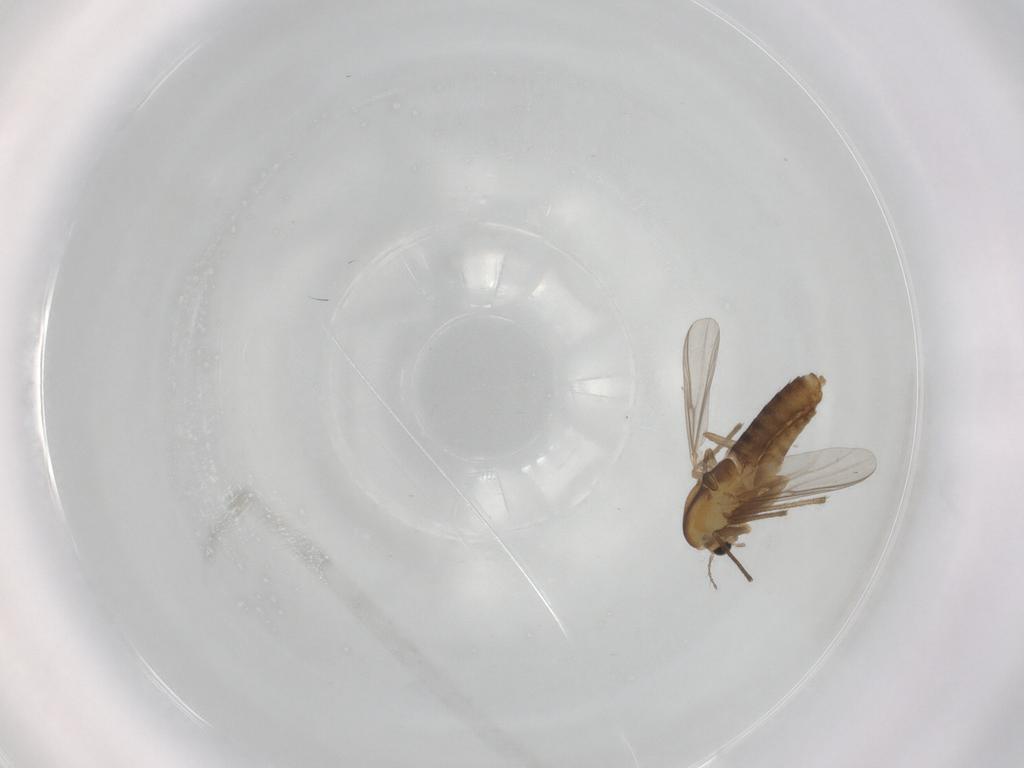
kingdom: Animalia
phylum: Arthropoda
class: Insecta
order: Diptera
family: Chironomidae
